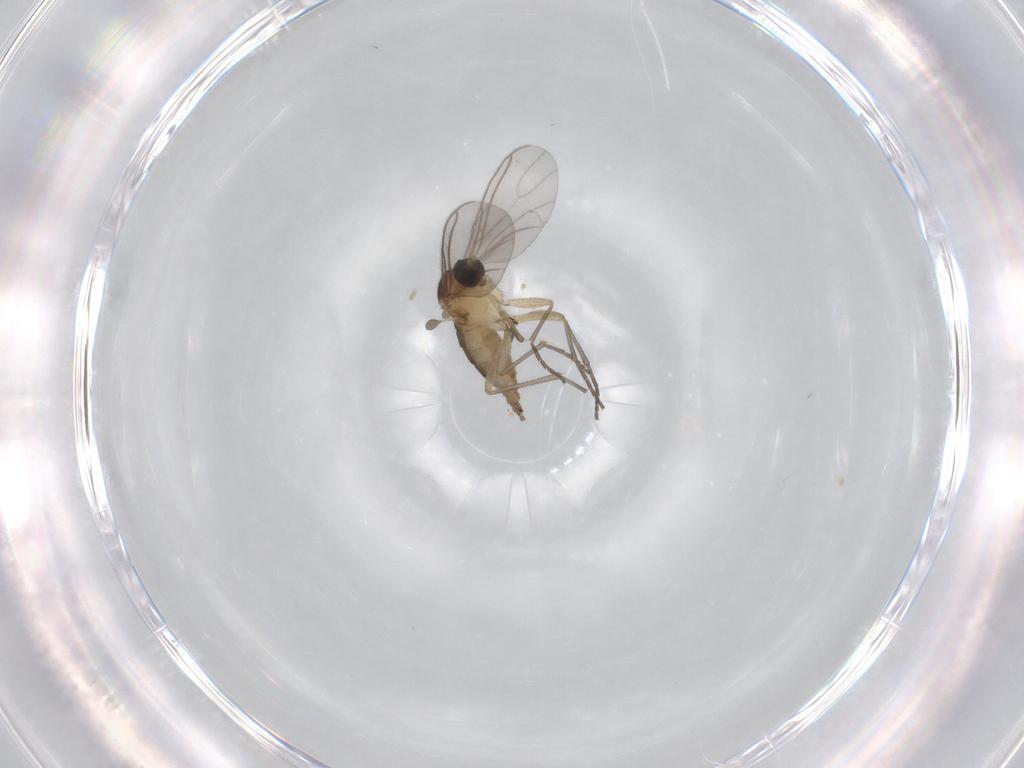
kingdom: Animalia
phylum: Arthropoda
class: Insecta
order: Diptera
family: Sciaridae
